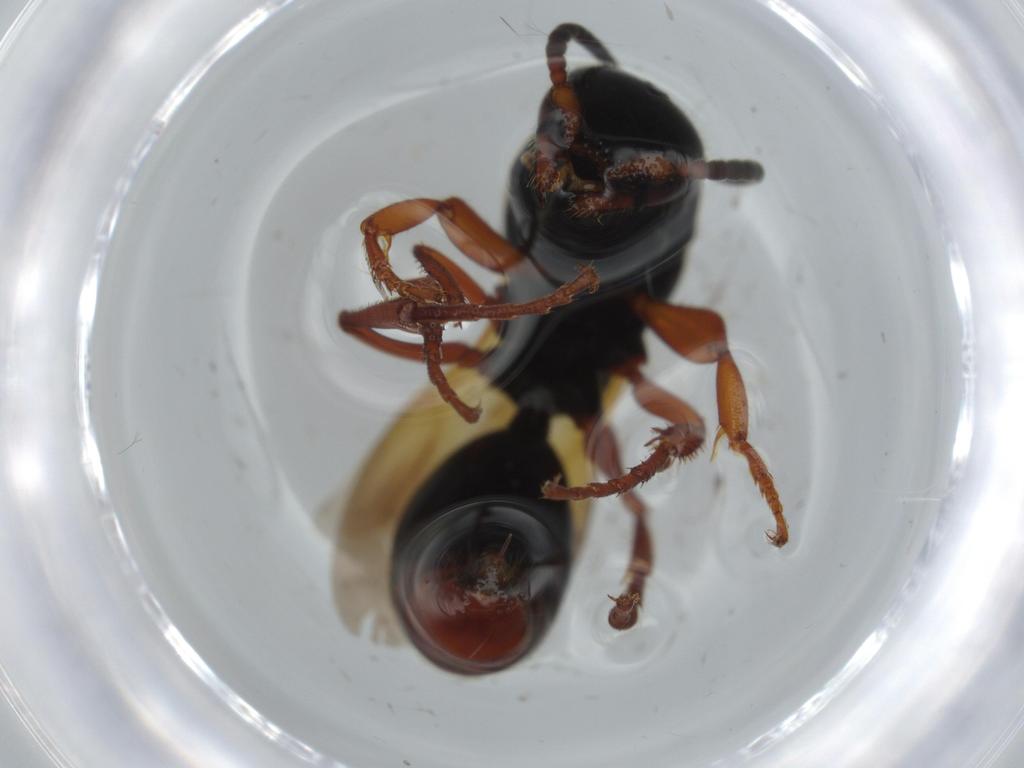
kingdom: Animalia
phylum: Arthropoda
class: Insecta
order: Hymenoptera
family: Bethylidae
